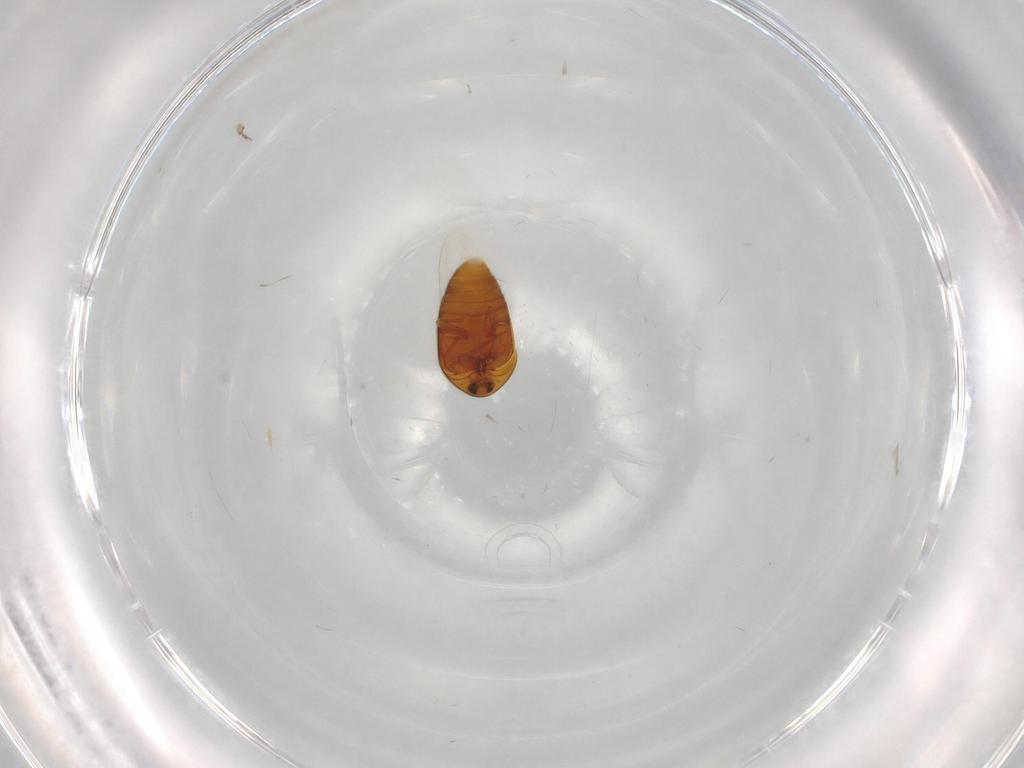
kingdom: Animalia
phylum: Arthropoda
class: Insecta
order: Coleoptera
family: Corylophidae
